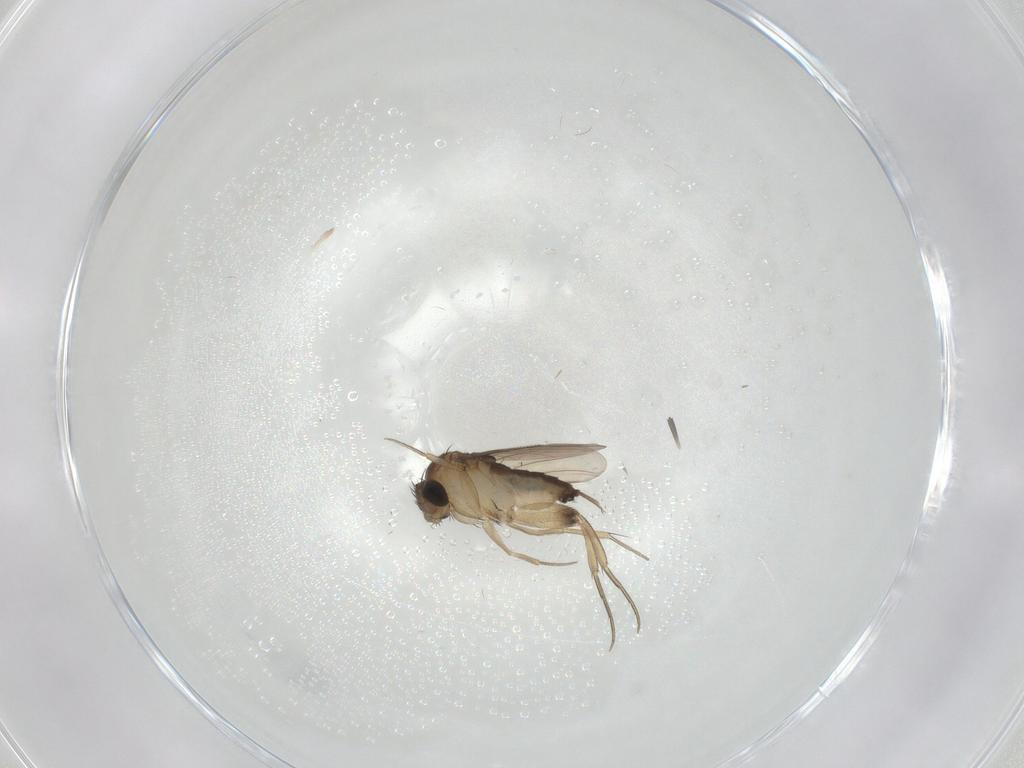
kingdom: Animalia
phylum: Arthropoda
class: Insecta
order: Diptera
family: Phoridae
